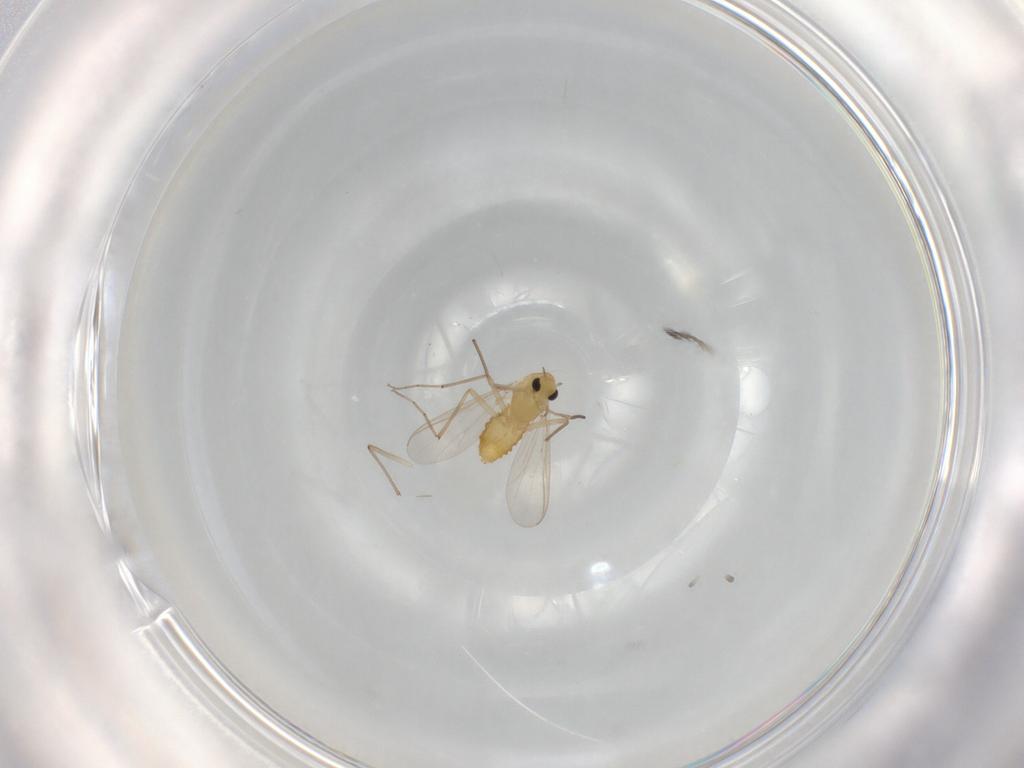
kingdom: Animalia
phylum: Arthropoda
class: Insecta
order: Diptera
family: Chironomidae
